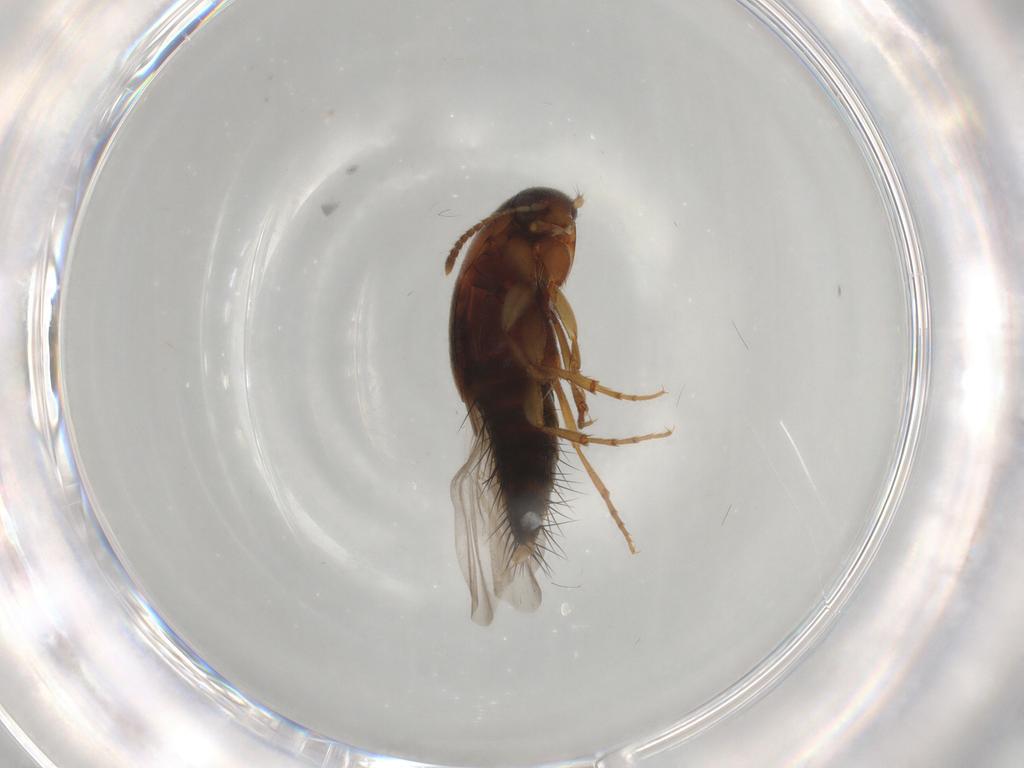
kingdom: Animalia
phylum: Arthropoda
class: Insecta
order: Coleoptera
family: Staphylinidae
